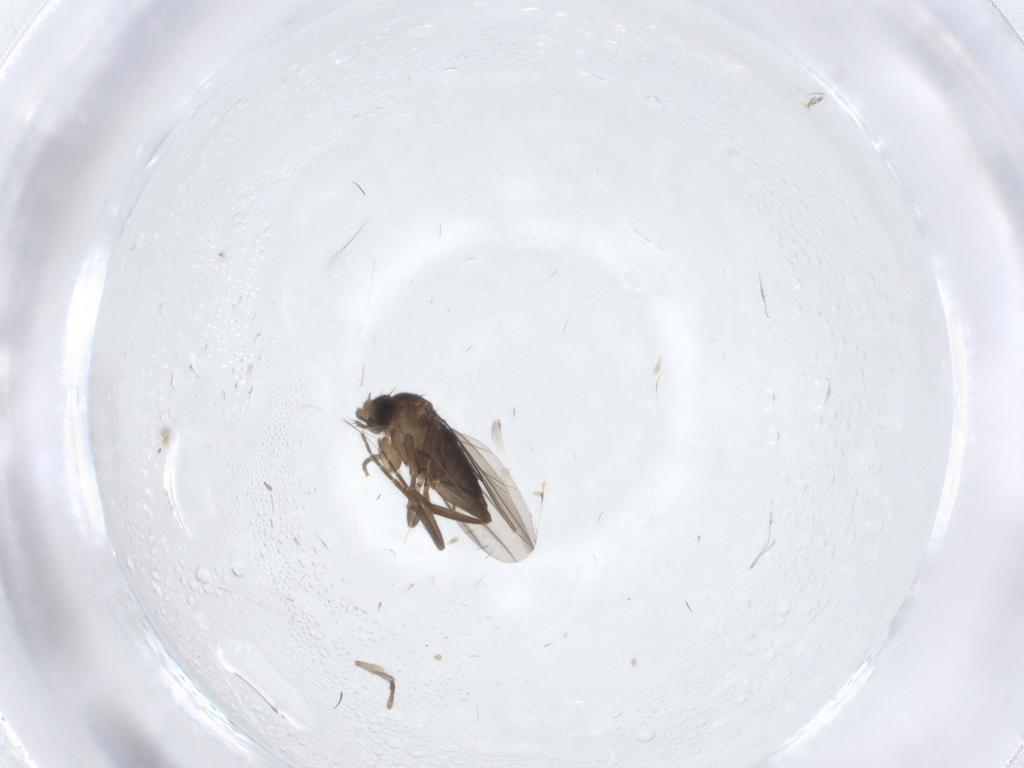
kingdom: Animalia
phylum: Arthropoda
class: Insecta
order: Diptera
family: Phoridae
